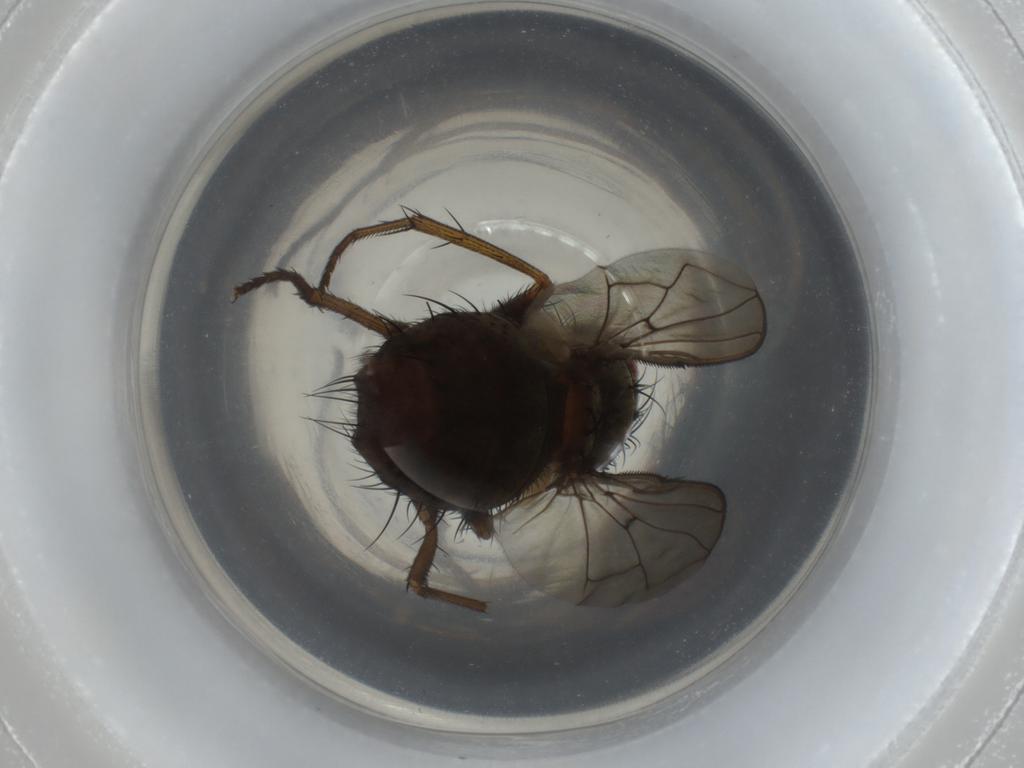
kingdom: Animalia
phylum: Arthropoda
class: Insecta
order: Diptera
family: Tachinidae
